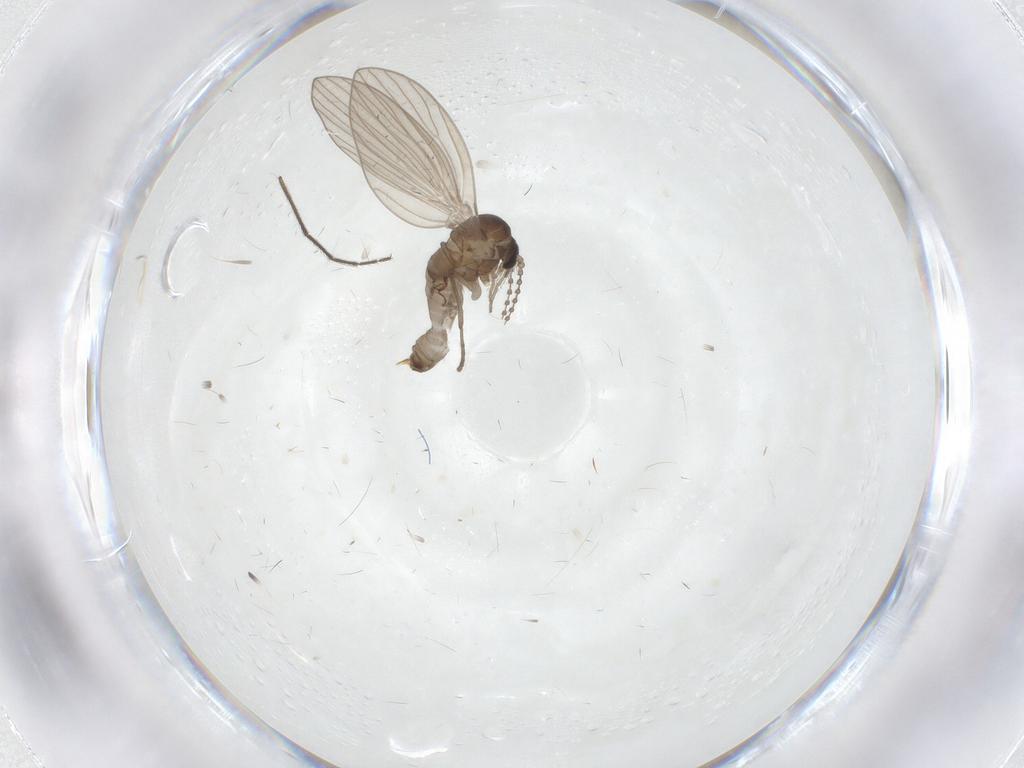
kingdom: Animalia
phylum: Arthropoda
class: Insecta
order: Diptera
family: Chironomidae
